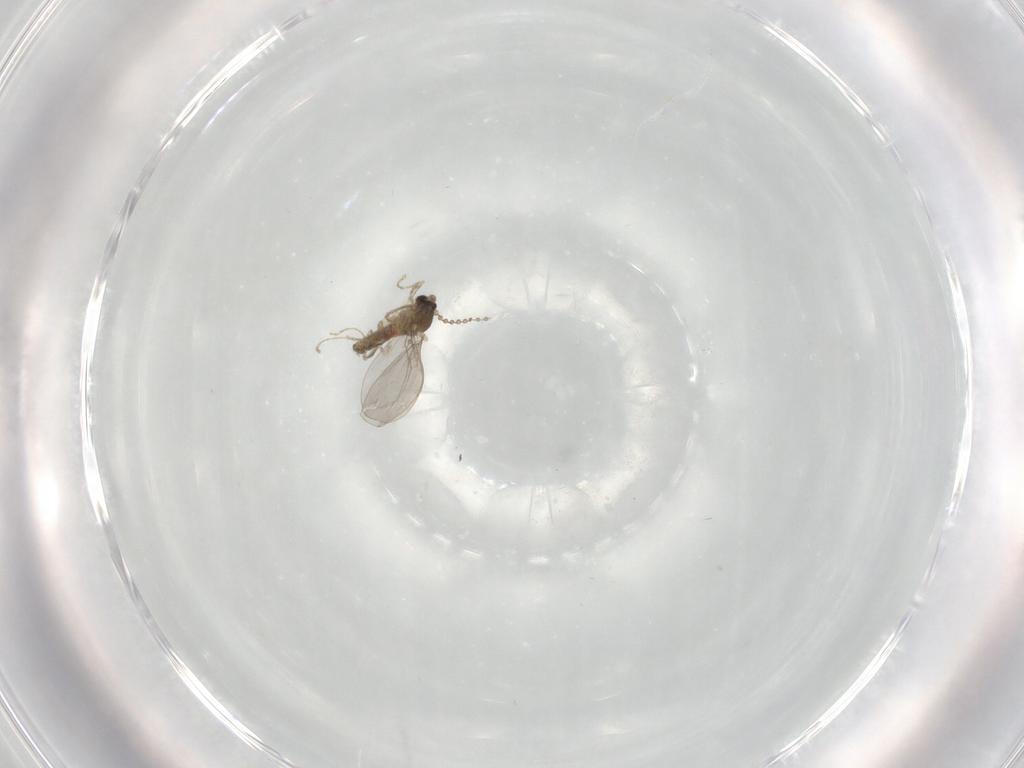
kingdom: Animalia
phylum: Arthropoda
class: Insecta
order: Diptera
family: Cecidomyiidae
